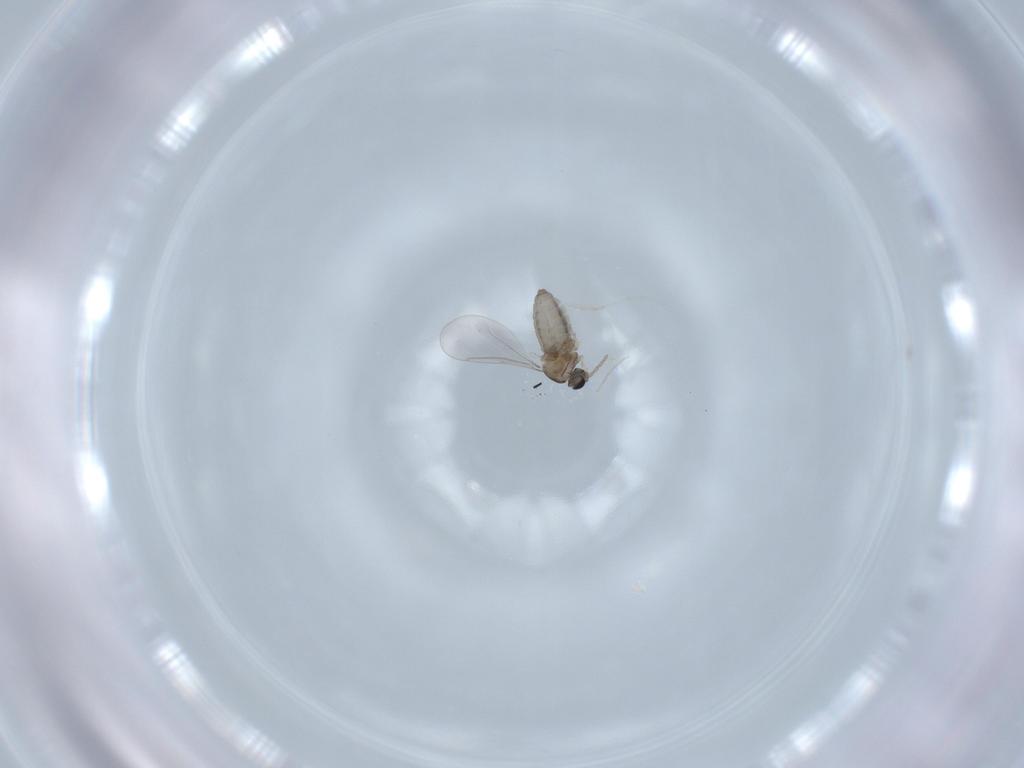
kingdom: Animalia
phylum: Arthropoda
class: Insecta
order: Diptera
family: Cecidomyiidae
